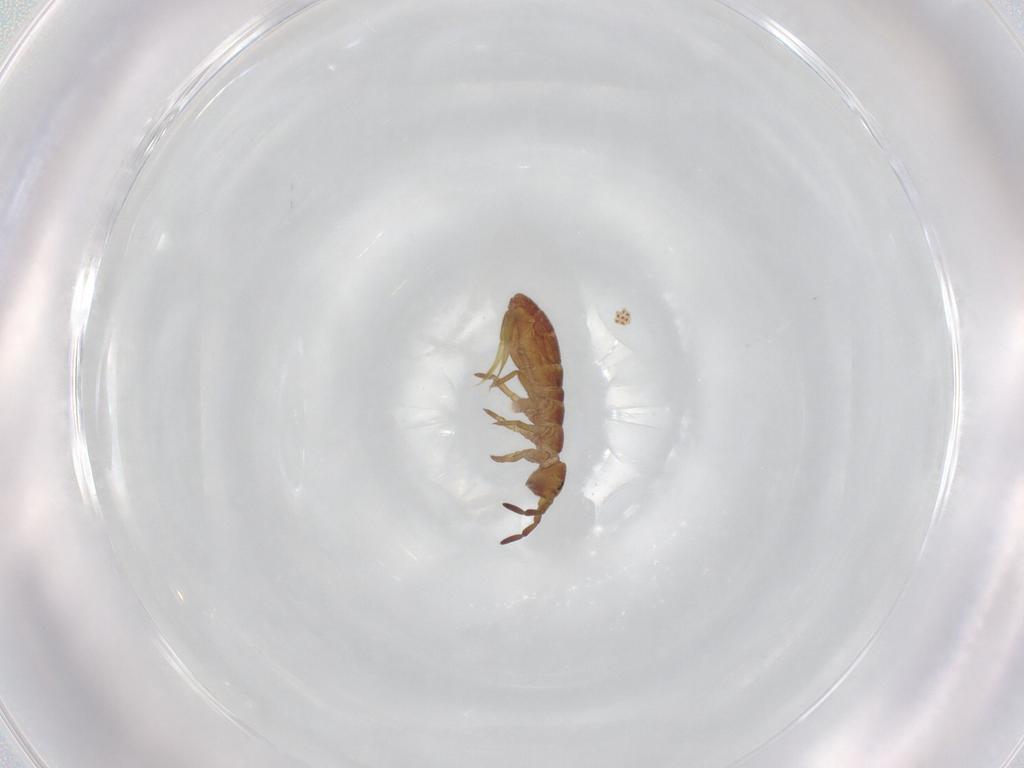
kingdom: Animalia
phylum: Arthropoda
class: Collembola
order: Entomobryomorpha
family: Isotomidae
